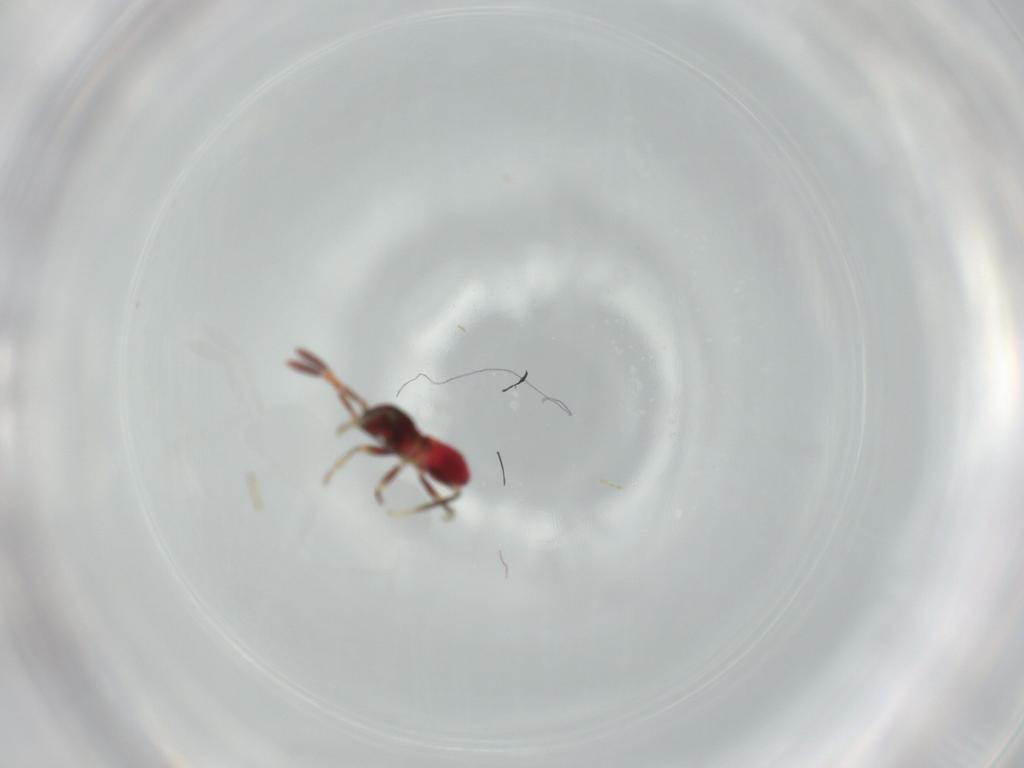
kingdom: Animalia
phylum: Arthropoda
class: Insecta
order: Hemiptera
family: Rhyparochromidae
